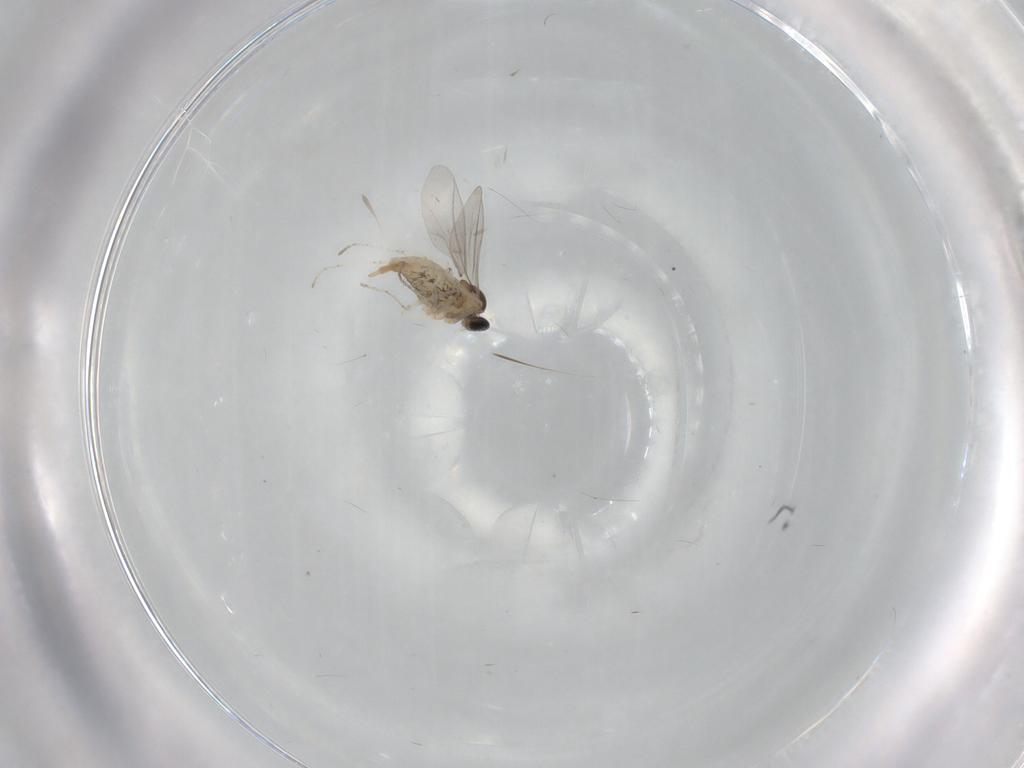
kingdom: Animalia
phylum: Arthropoda
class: Insecta
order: Diptera
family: Cecidomyiidae
